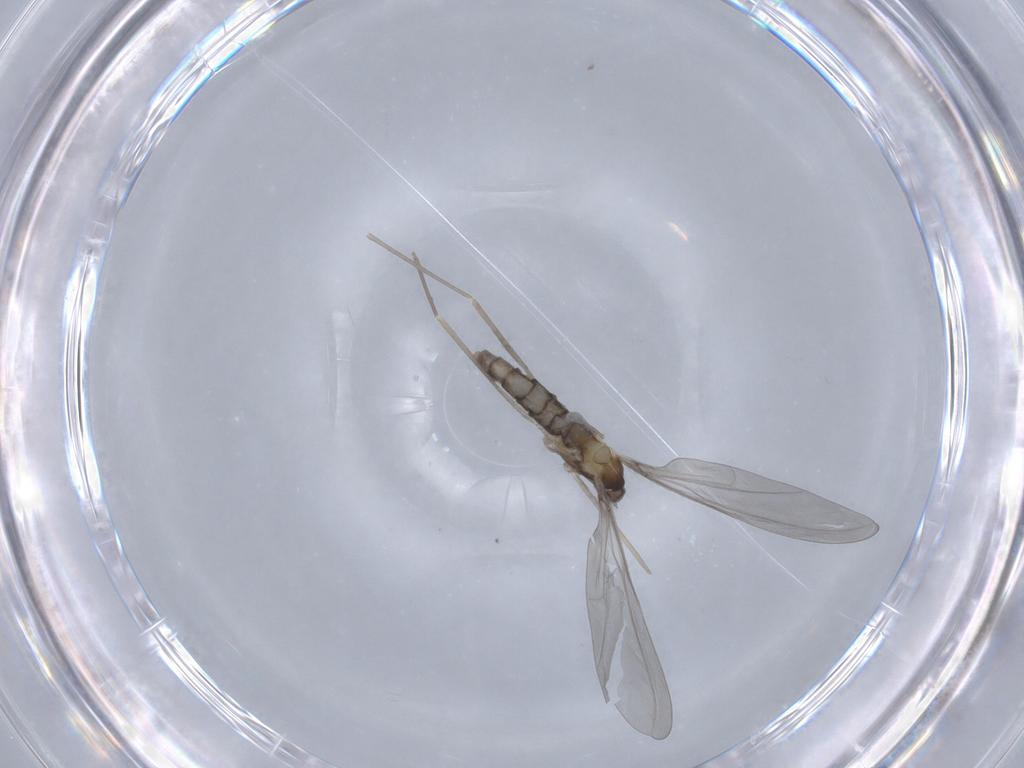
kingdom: Animalia
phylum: Arthropoda
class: Insecta
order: Diptera
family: Cecidomyiidae
